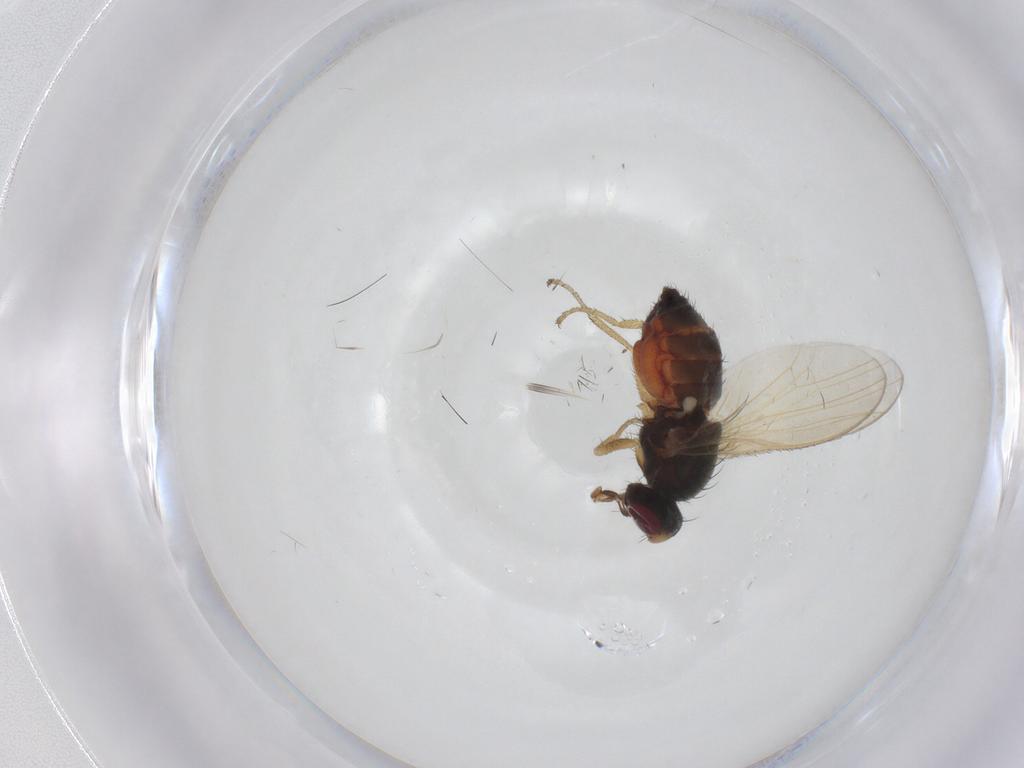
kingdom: Animalia
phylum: Arthropoda
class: Insecta
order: Diptera
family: Heleomyzidae
